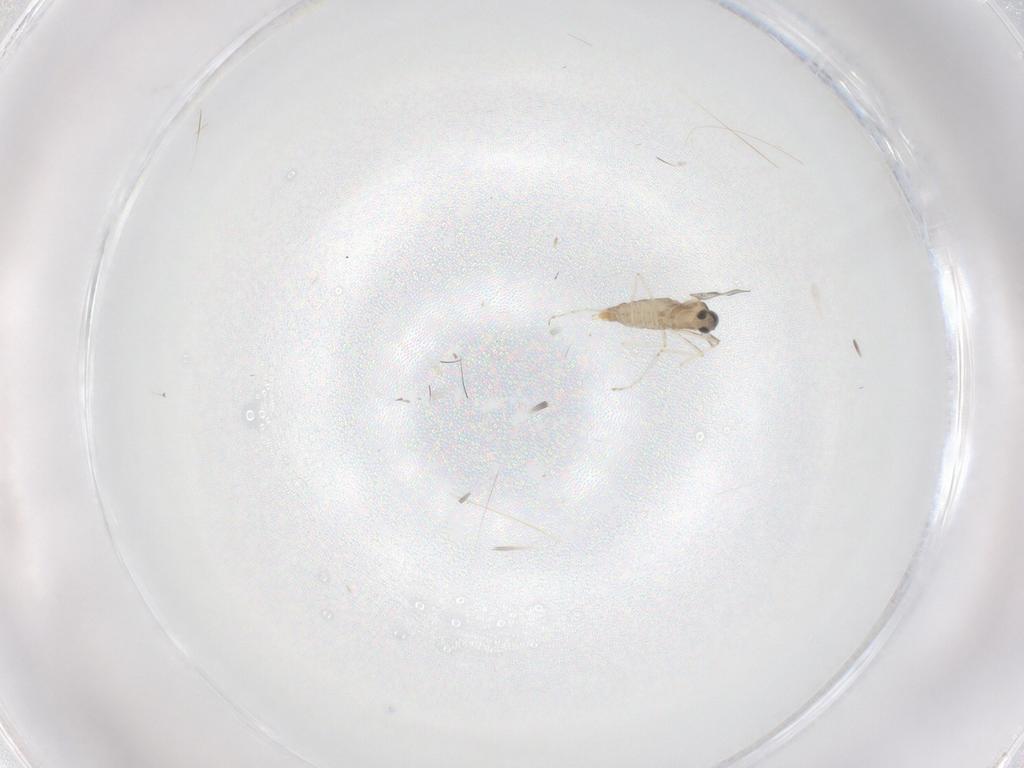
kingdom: Animalia
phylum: Arthropoda
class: Insecta
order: Diptera
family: Cecidomyiidae
